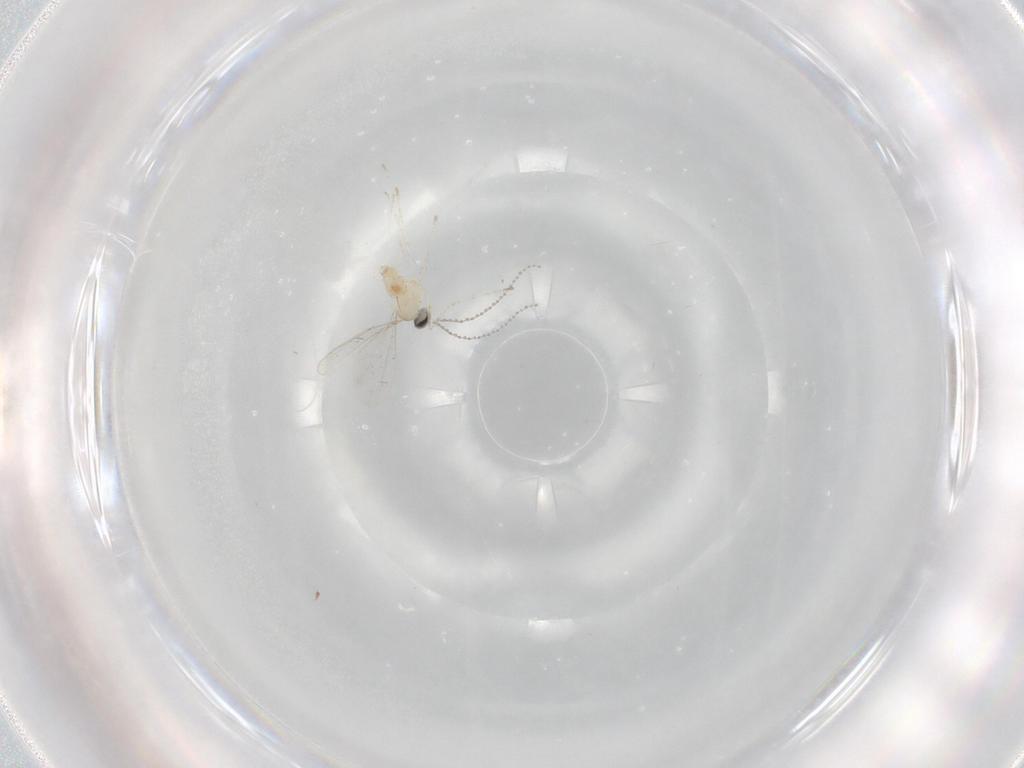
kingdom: Animalia
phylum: Arthropoda
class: Insecta
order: Diptera
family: Cecidomyiidae
